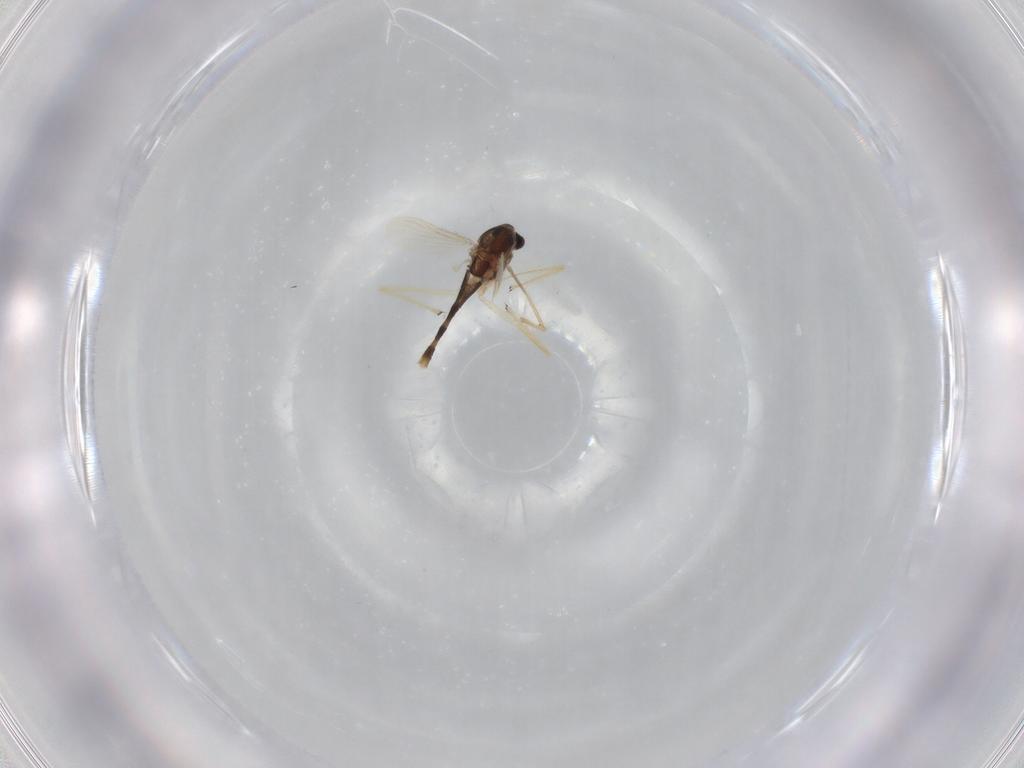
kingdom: Animalia
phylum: Arthropoda
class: Insecta
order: Diptera
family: Chironomidae
